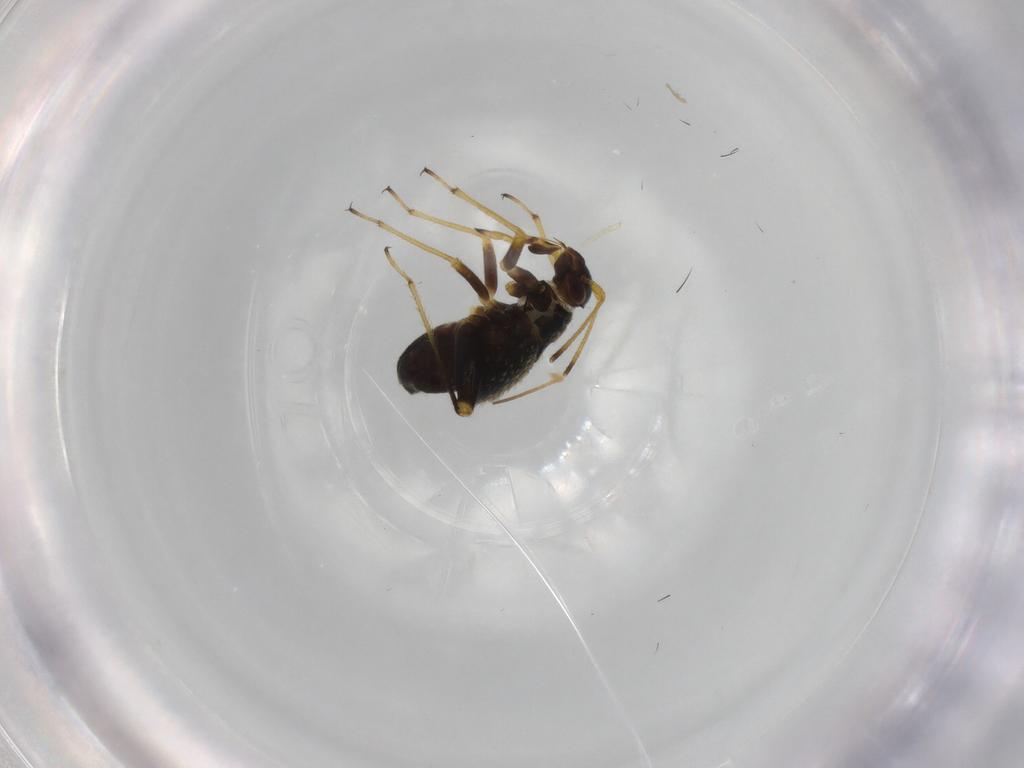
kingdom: Animalia
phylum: Arthropoda
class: Insecta
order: Hemiptera
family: Miridae
